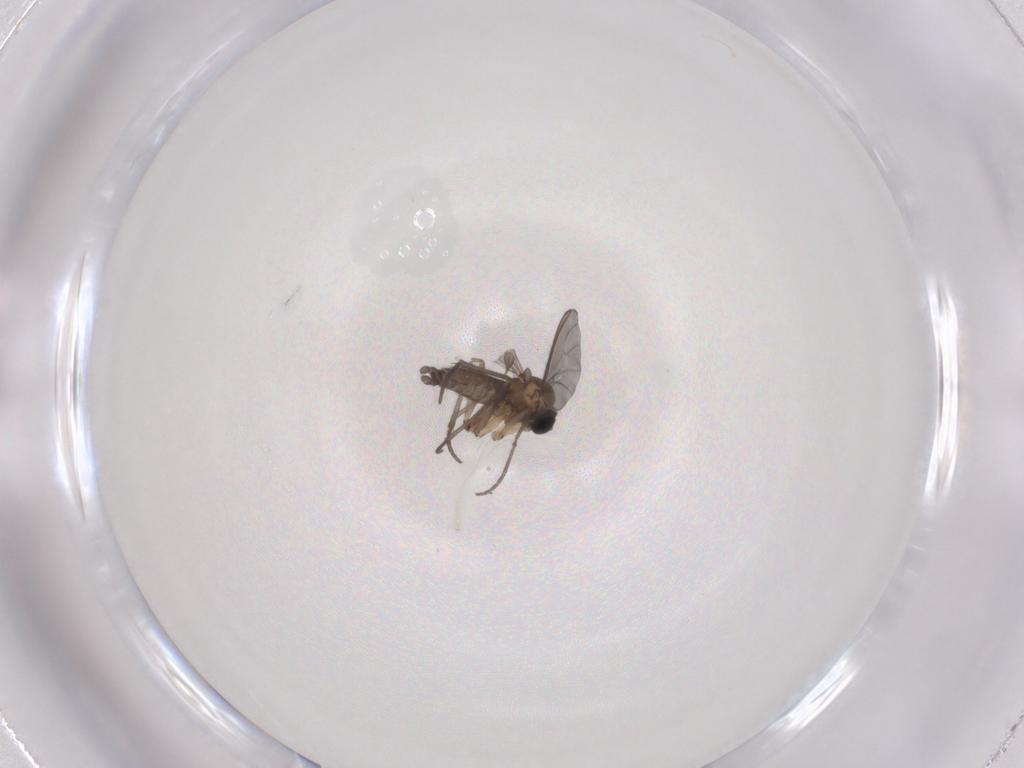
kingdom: Animalia
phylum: Arthropoda
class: Insecta
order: Diptera
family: Sciaridae
